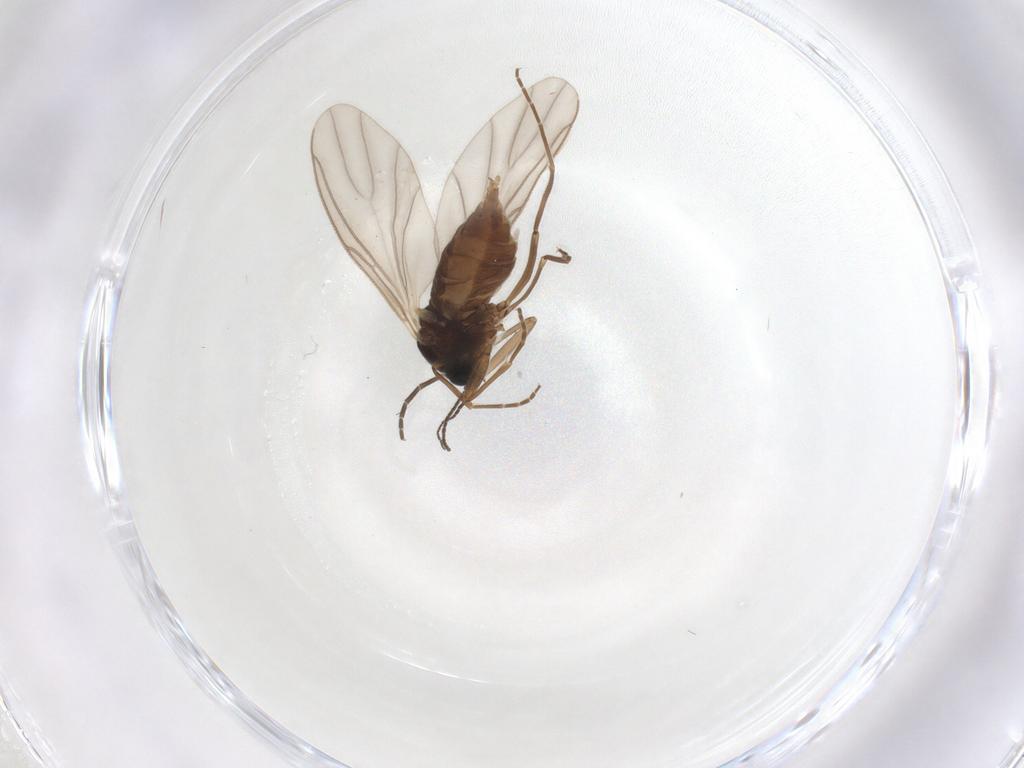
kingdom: Animalia
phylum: Arthropoda
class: Insecta
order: Diptera
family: Sciaridae
